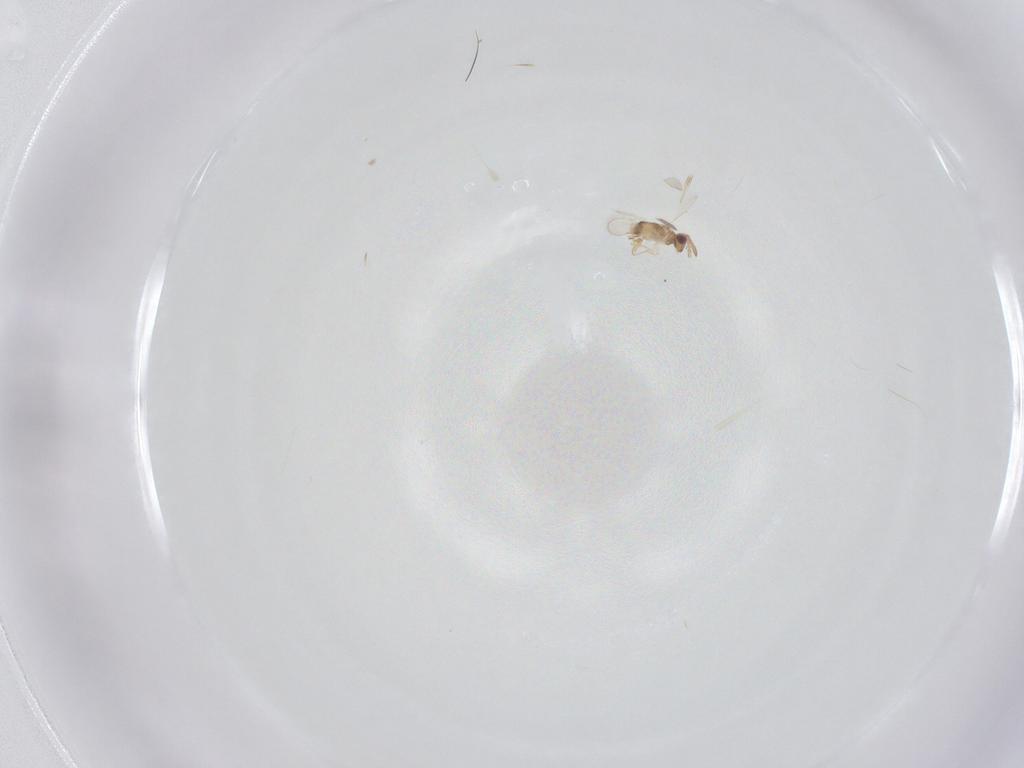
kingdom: Animalia
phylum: Arthropoda
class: Insecta
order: Hymenoptera
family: Aphelinidae
